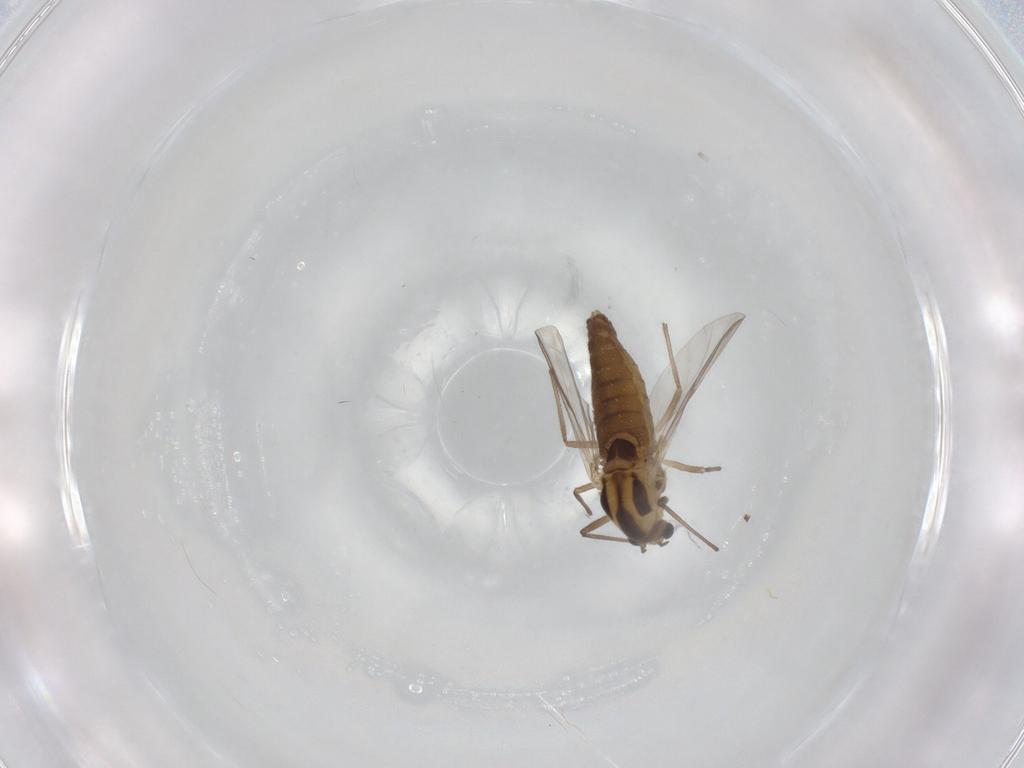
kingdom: Animalia
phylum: Arthropoda
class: Insecta
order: Diptera
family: Chironomidae
